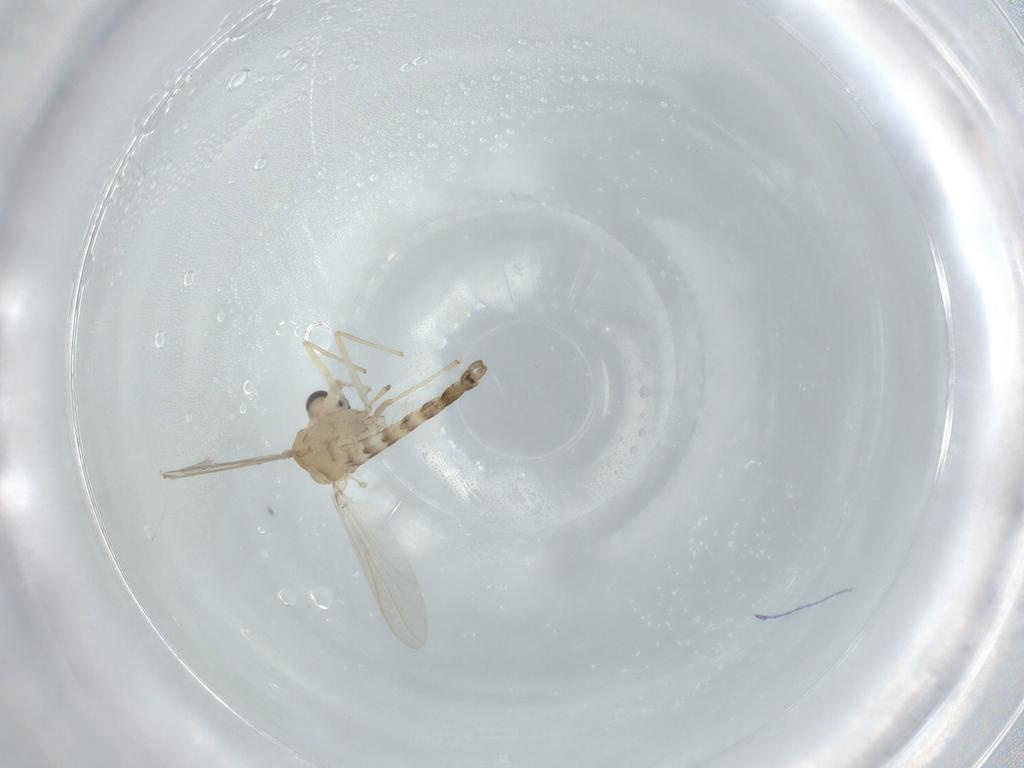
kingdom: Animalia
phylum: Arthropoda
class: Insecta
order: Diptera
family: Chironomidae
